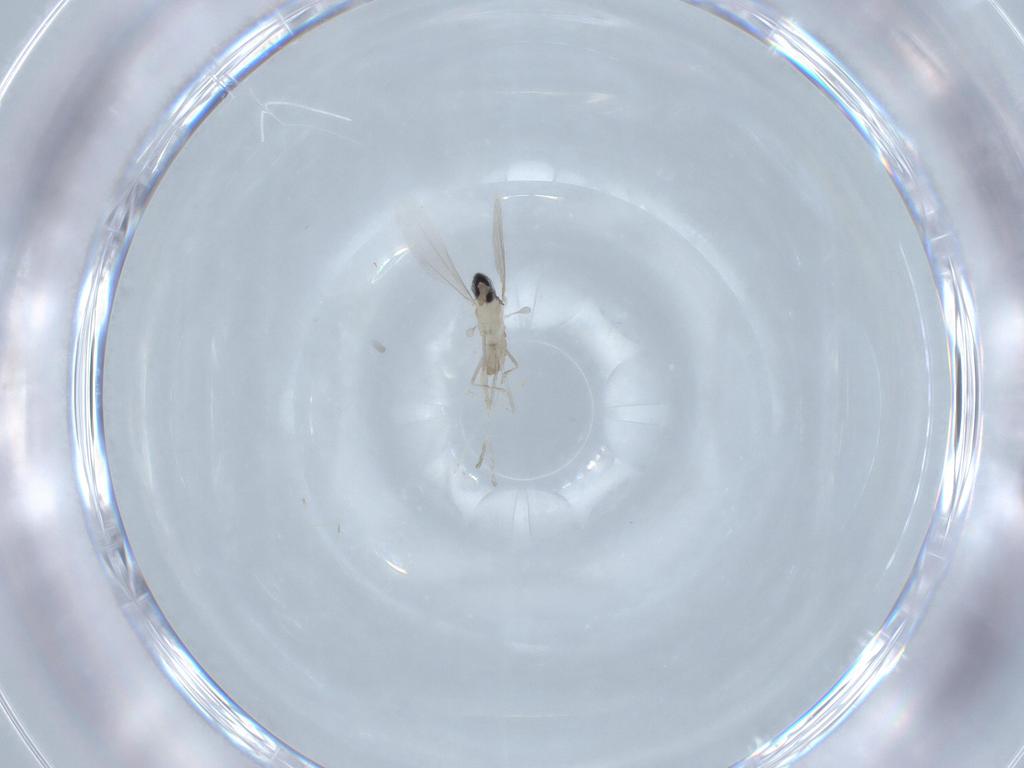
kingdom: Animalia
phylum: Arthropoda
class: Insecta
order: Diptera
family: Cecidomyiidae
